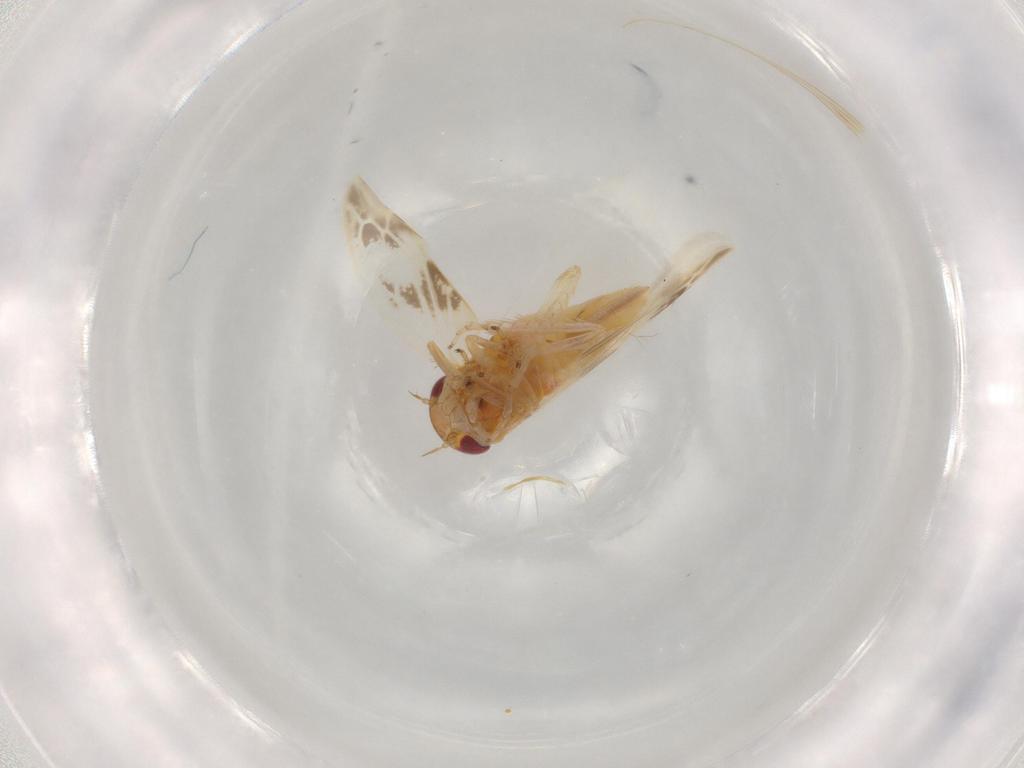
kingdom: Animalia
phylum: Arthropoda
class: Insecta
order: Hemiptera
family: Cicadellidae
